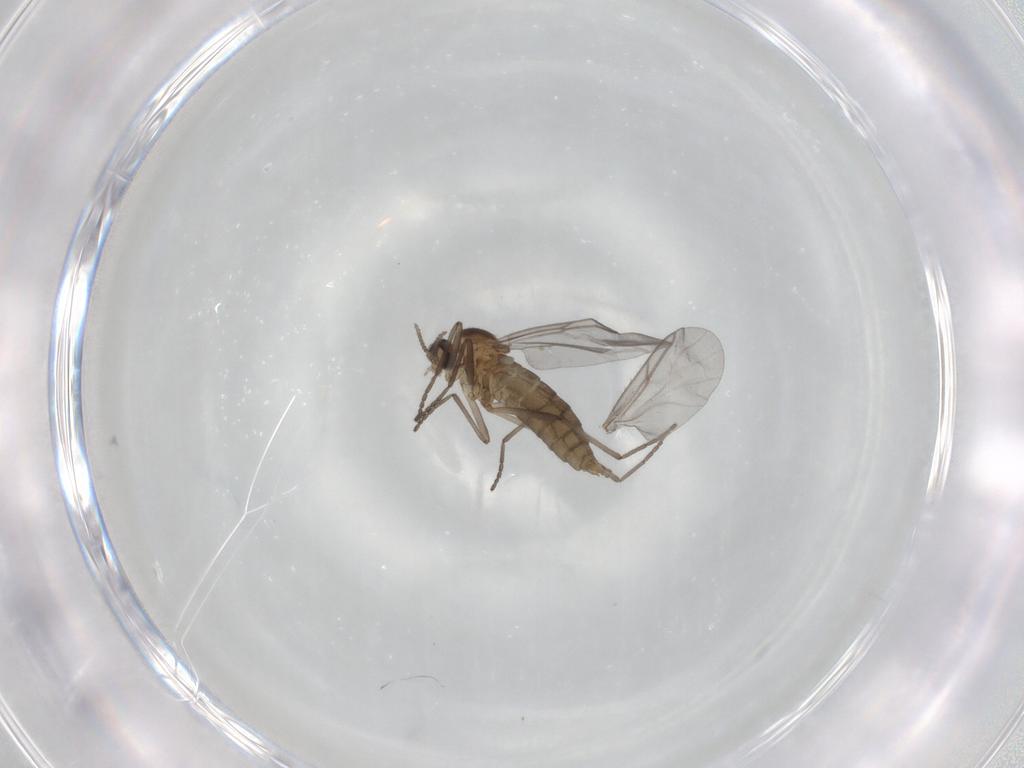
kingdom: Animalia
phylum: Arthropoda
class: Insecta
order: Diptera
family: Cecidomyiidae
